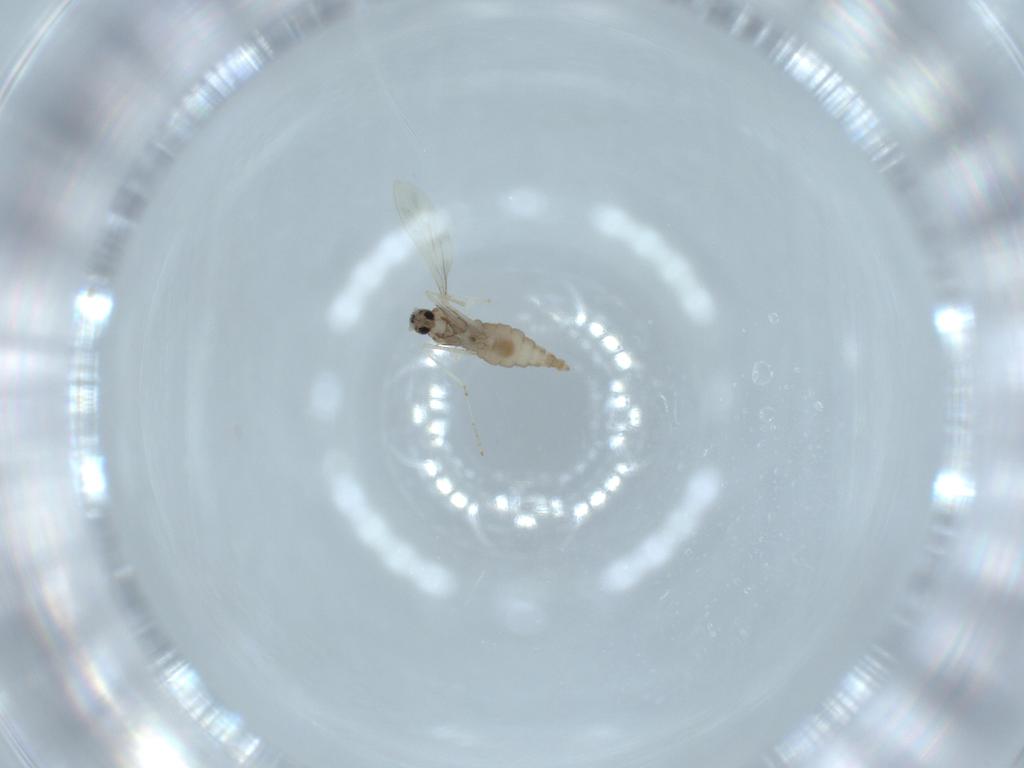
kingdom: Animalia
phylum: Arthropoda
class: Insecta
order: Diptera
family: Cecidomyiidae
